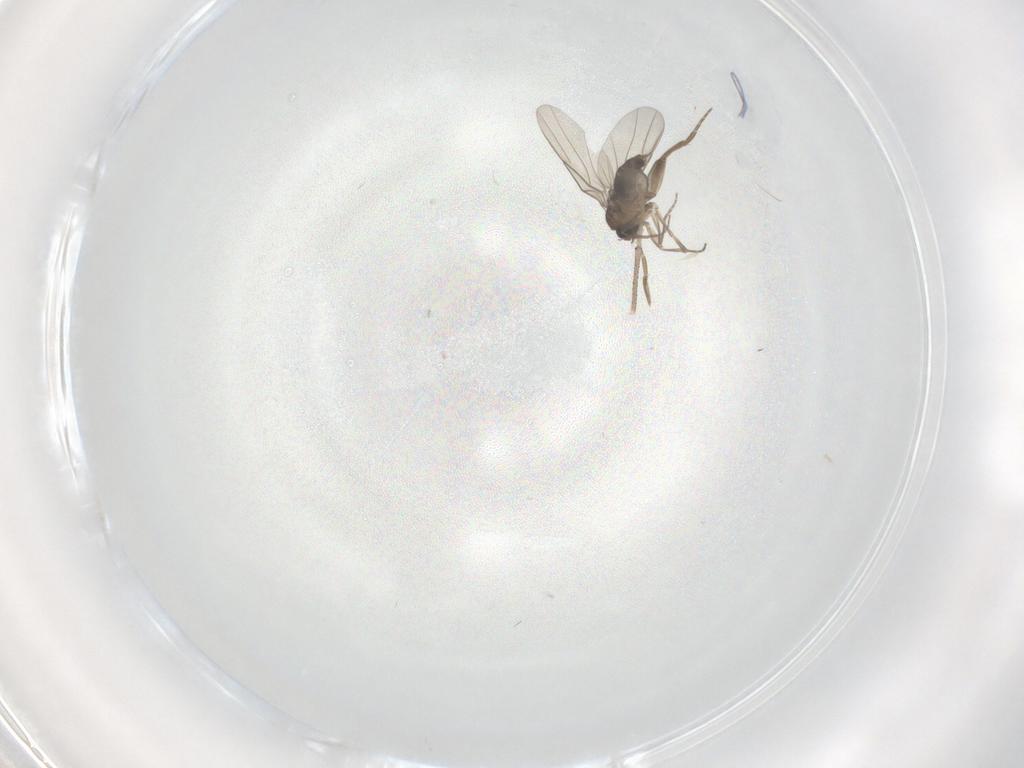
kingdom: Animalia
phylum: Arthropoda
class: Insecta
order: Diptera
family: Phoridae
